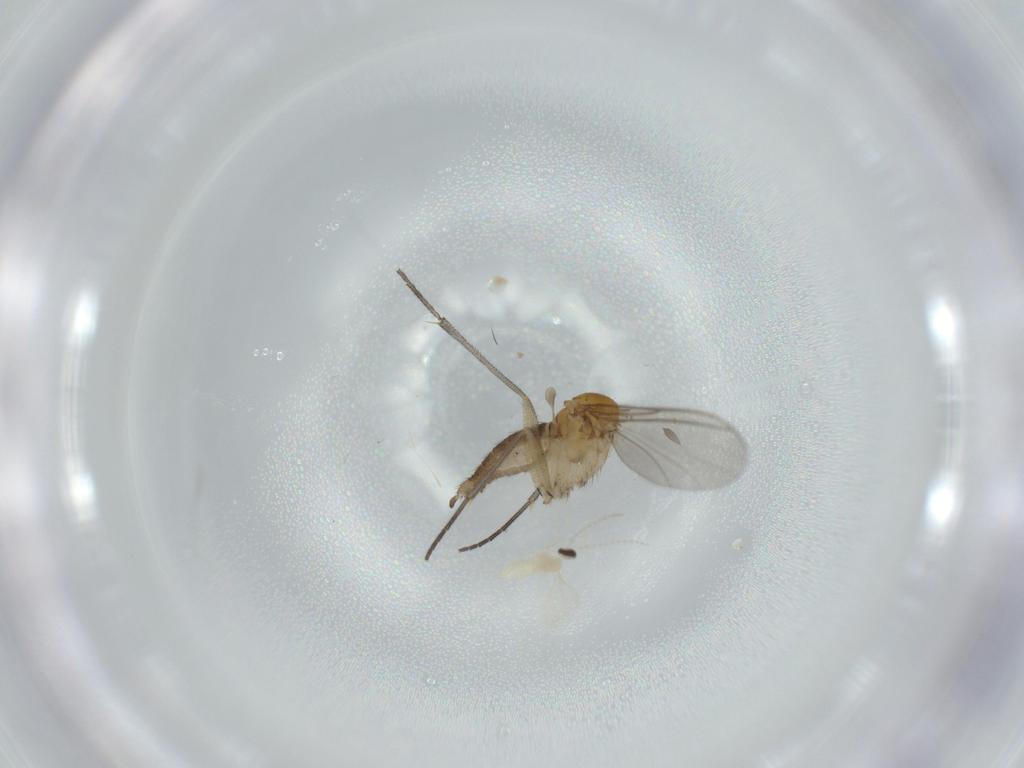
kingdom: Animalia
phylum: Arthropoda
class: Insecta
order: Diptera
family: Sciaridae
